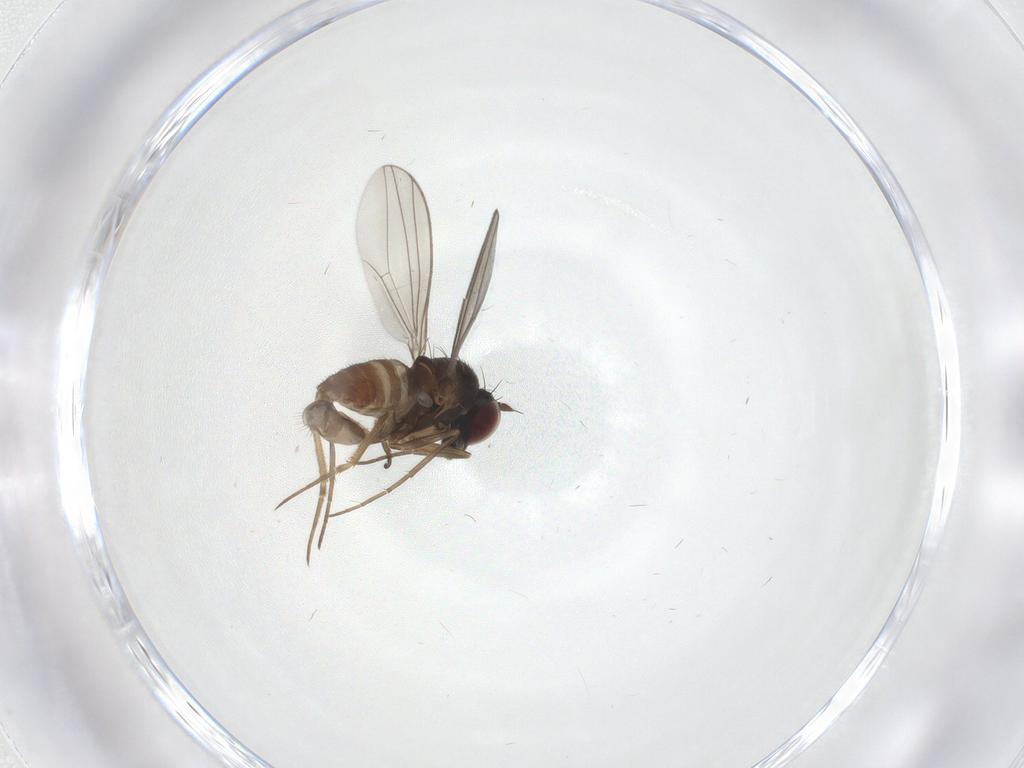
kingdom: Animalia
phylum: Arthropoda
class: Insecta
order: Diptera
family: Dolichopodidae
